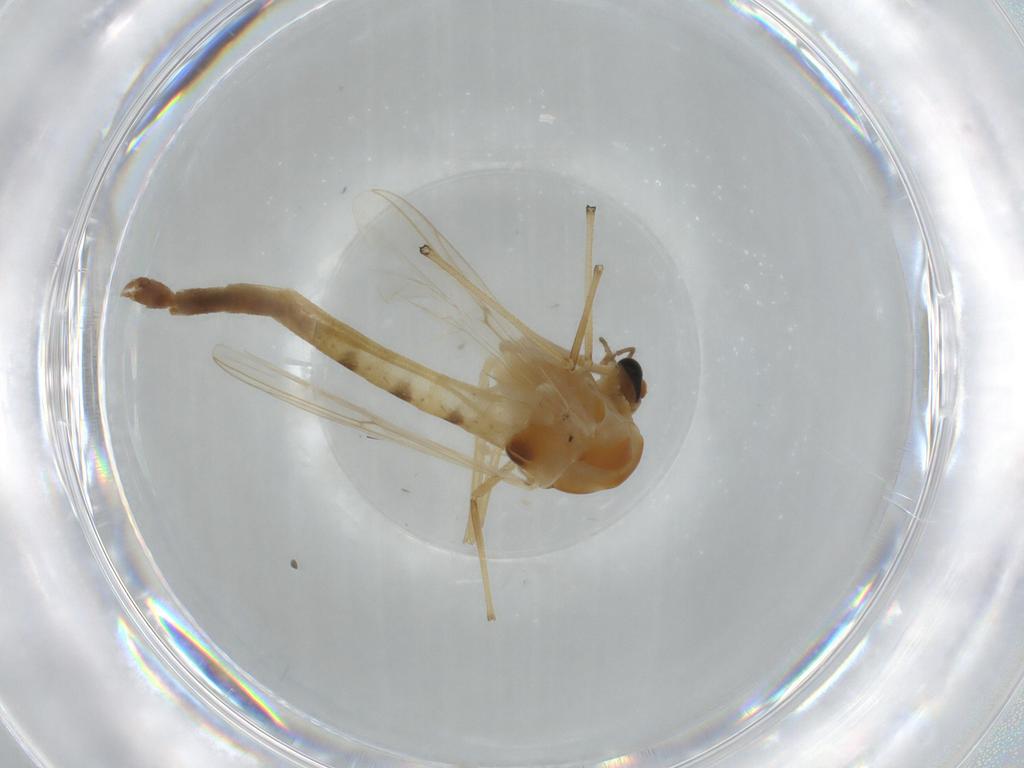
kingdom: Animalia
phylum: Arthropoda
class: Insecta
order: Diptera
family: Chironomidae
